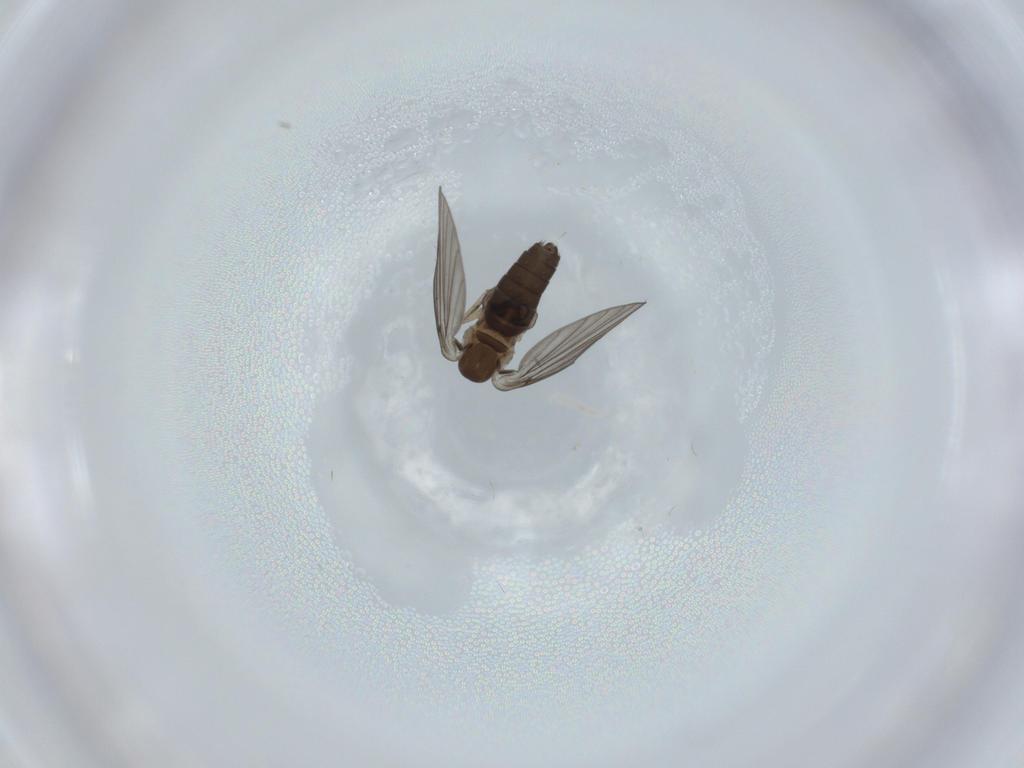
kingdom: Animalia
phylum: Arthropoda
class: Insecta
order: Diptera
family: Psychodidae
